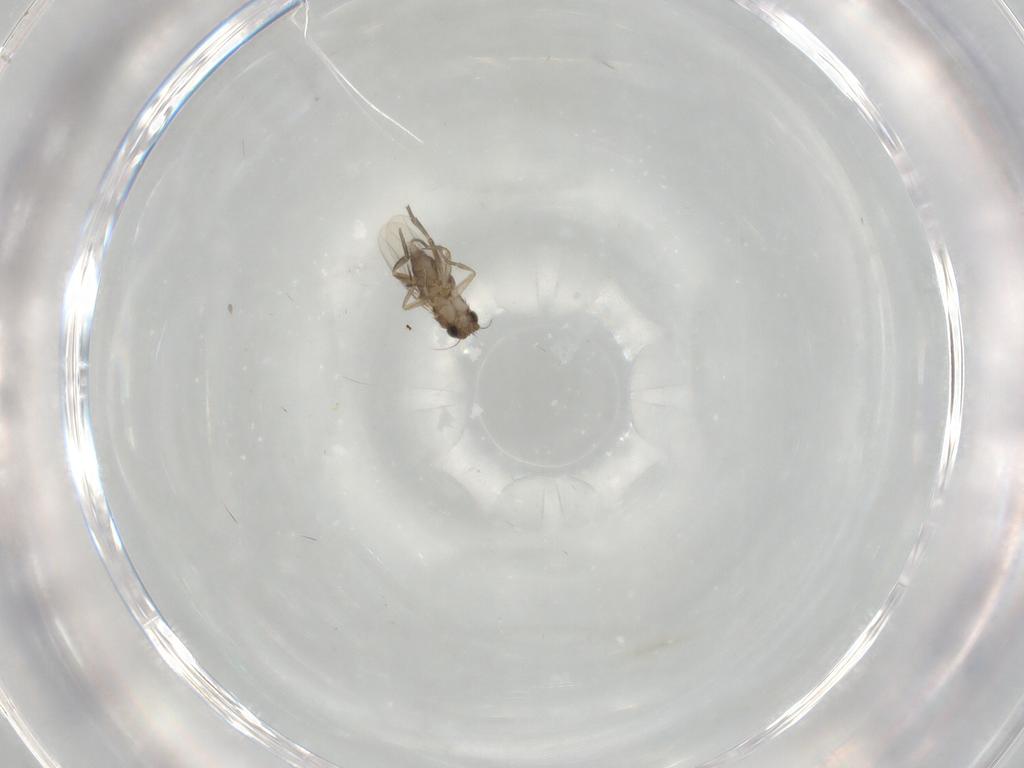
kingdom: Animalia
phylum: Arthropoda
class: Insecta
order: Diptera
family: Phoridae
